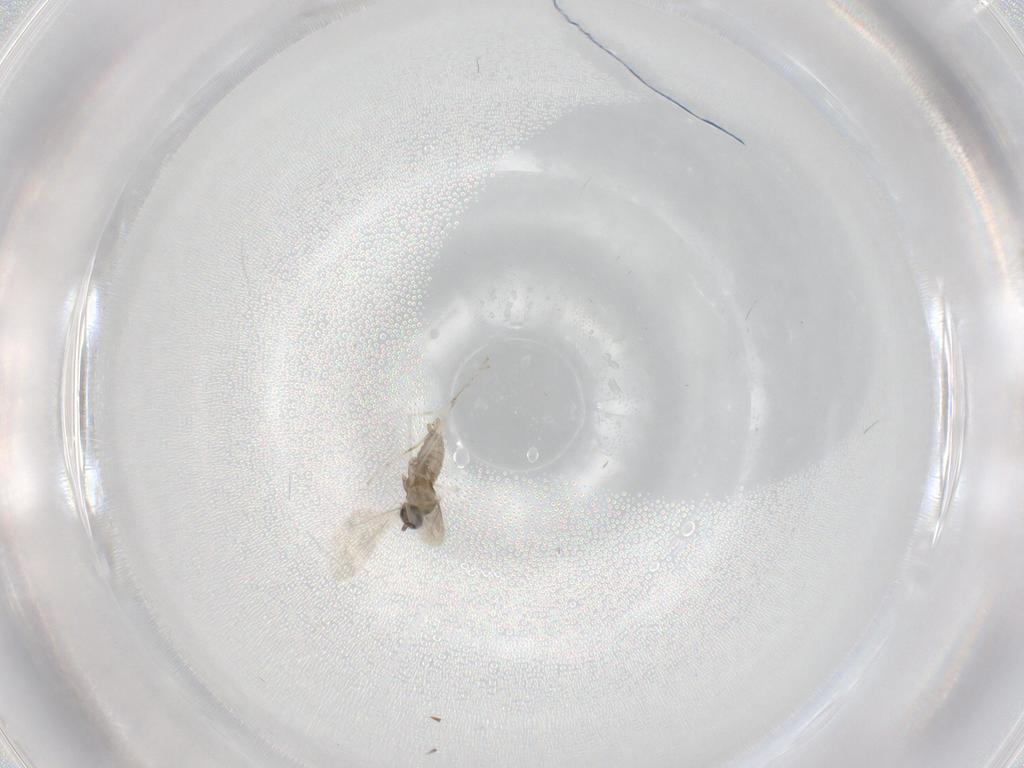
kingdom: Animalia
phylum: Arthropoda
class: Insecta
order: Diptera
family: Cecidomyiidae
